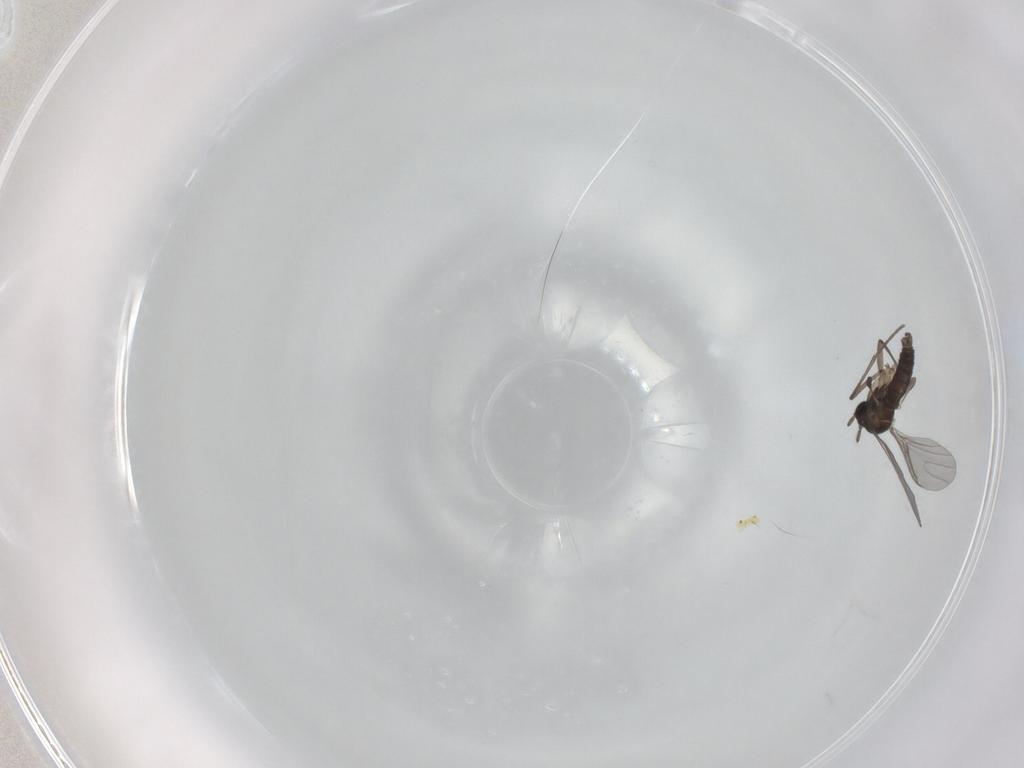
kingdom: Animalia
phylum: Arthropoda
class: Insecta
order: Diptera
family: Sciaridae
